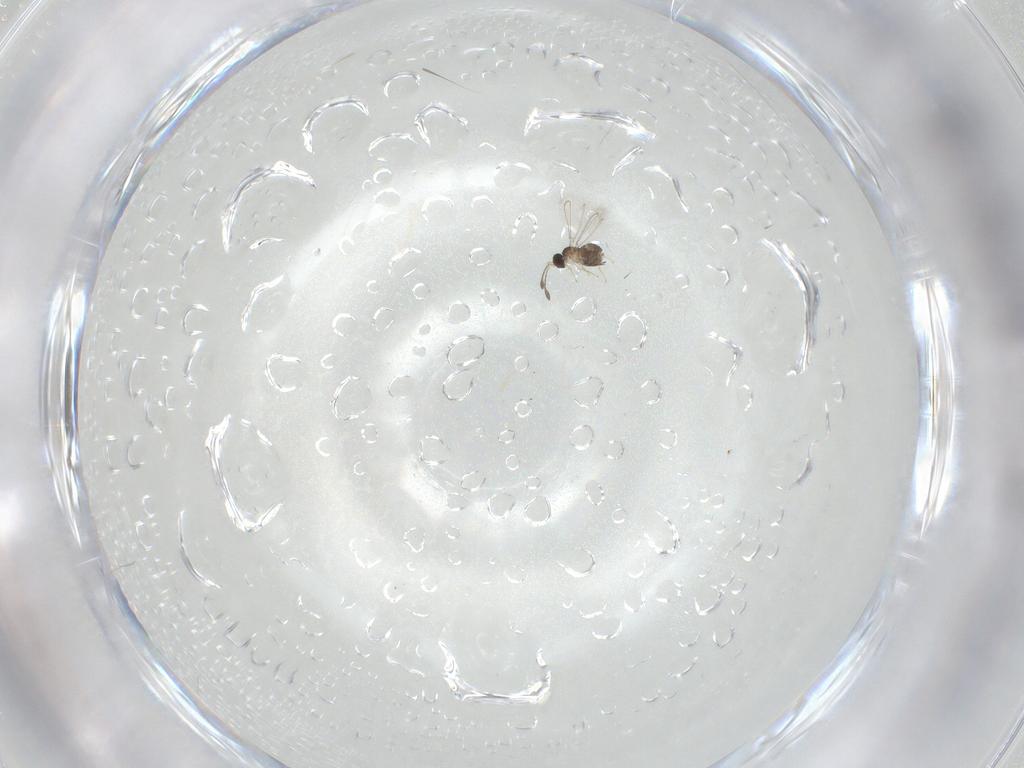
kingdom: Animalia
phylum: Arthropoda
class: Insecta
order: Hymenoptera
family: Mymaridae
